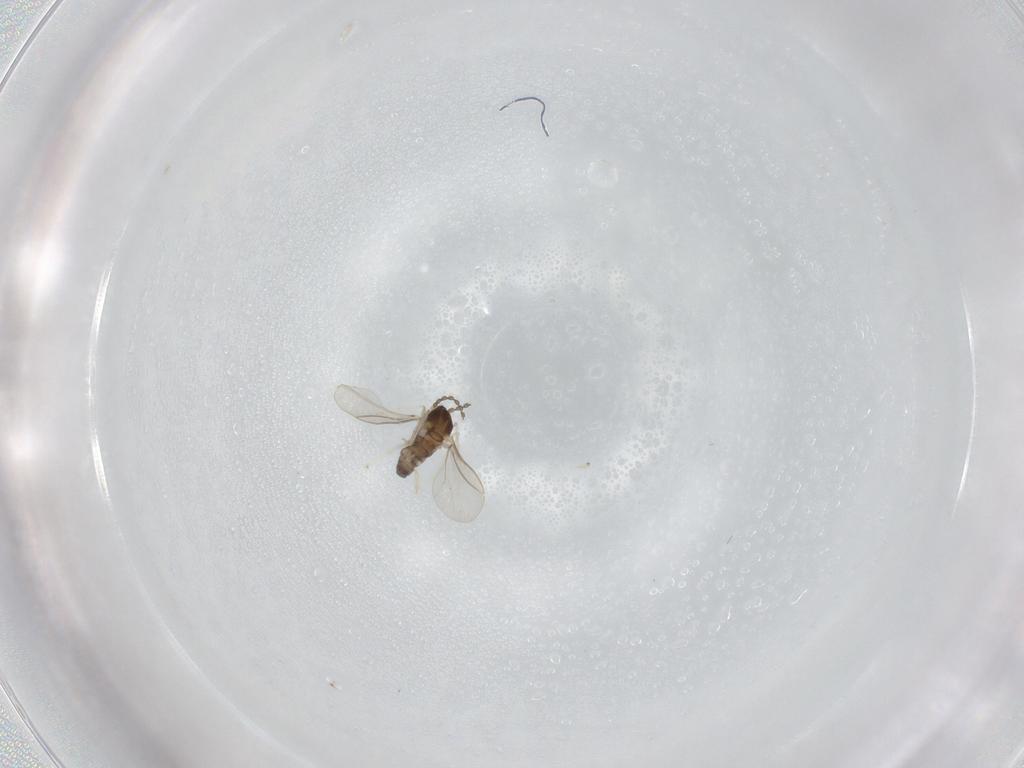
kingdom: Animalia
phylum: Arthropoda
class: Insecta
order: Diptera
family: Cecidomyiidae
